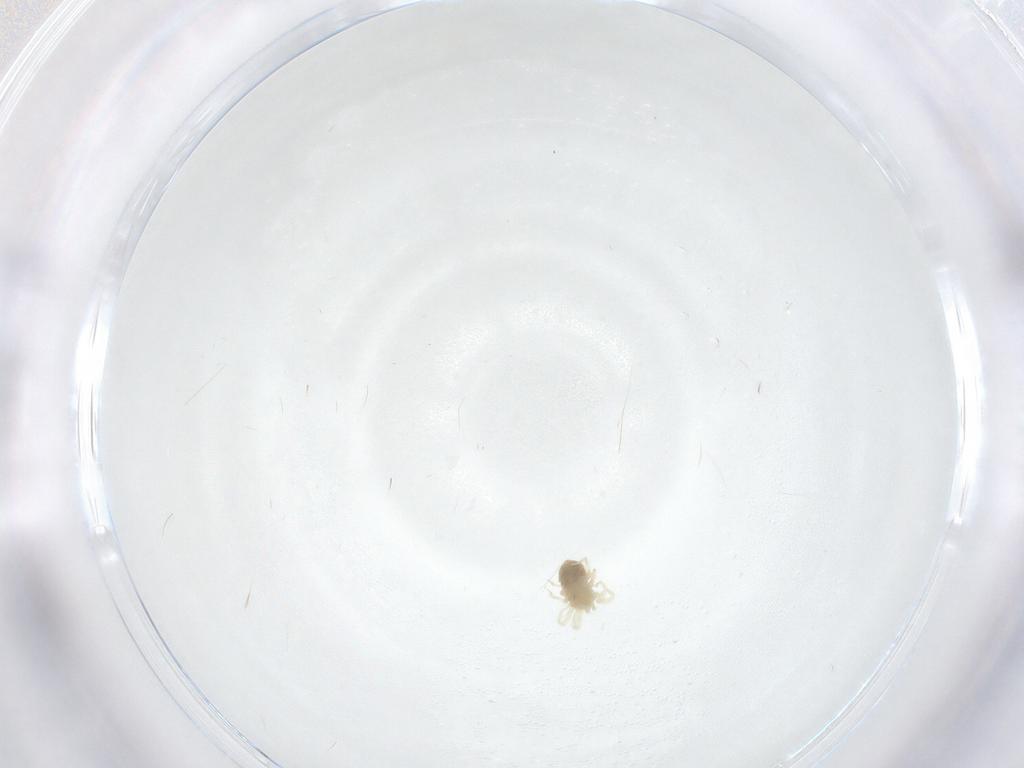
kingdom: Animalia
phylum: Arthropoda
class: Arachnida
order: Trombidiformes
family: Anystidae
